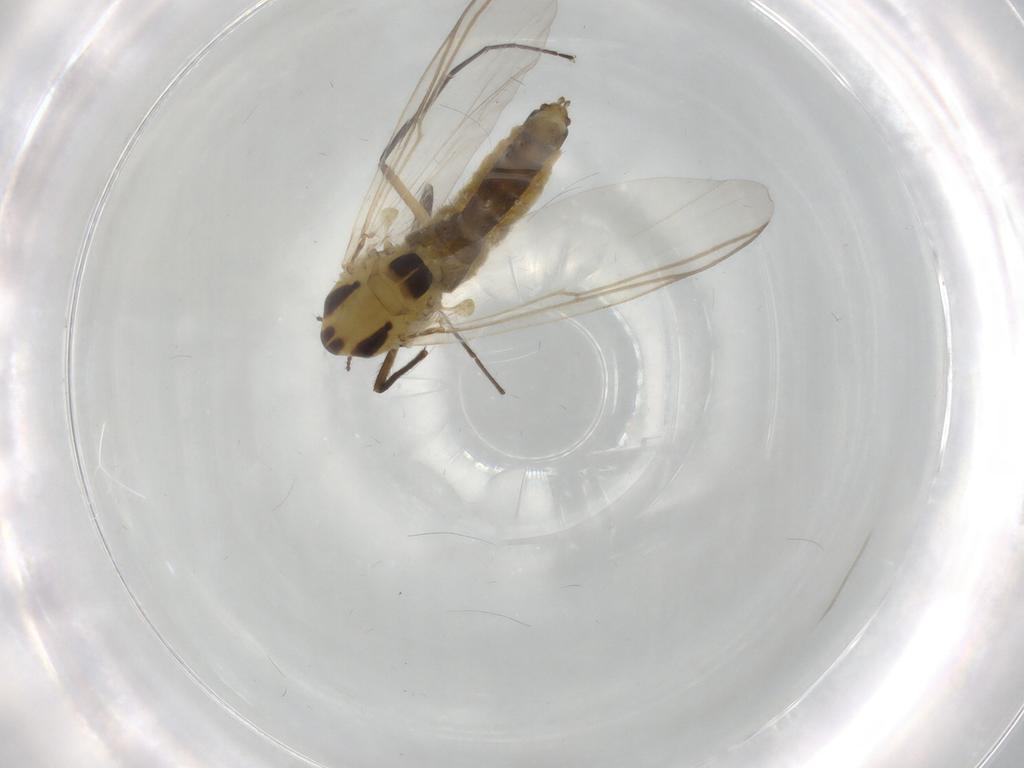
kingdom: Animalia
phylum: Arthropoda
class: Insecta
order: Diptera
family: Chironomidae
